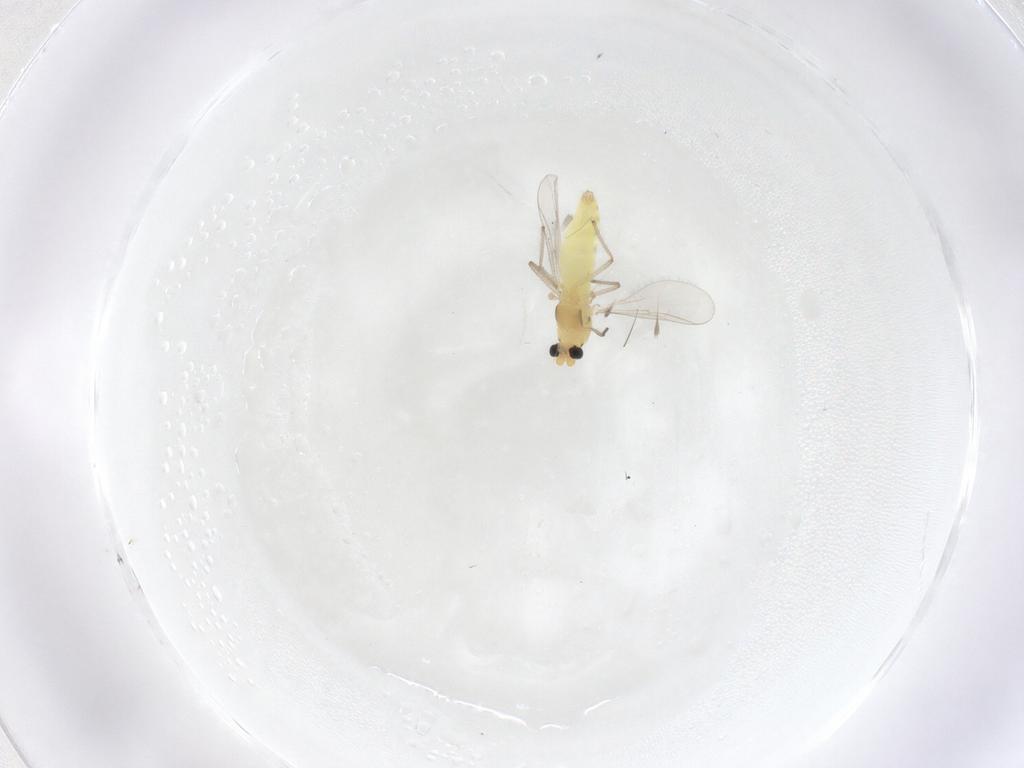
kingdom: Animalia
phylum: Arthropoda
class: Insecta
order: Diptera
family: Chironomidae
